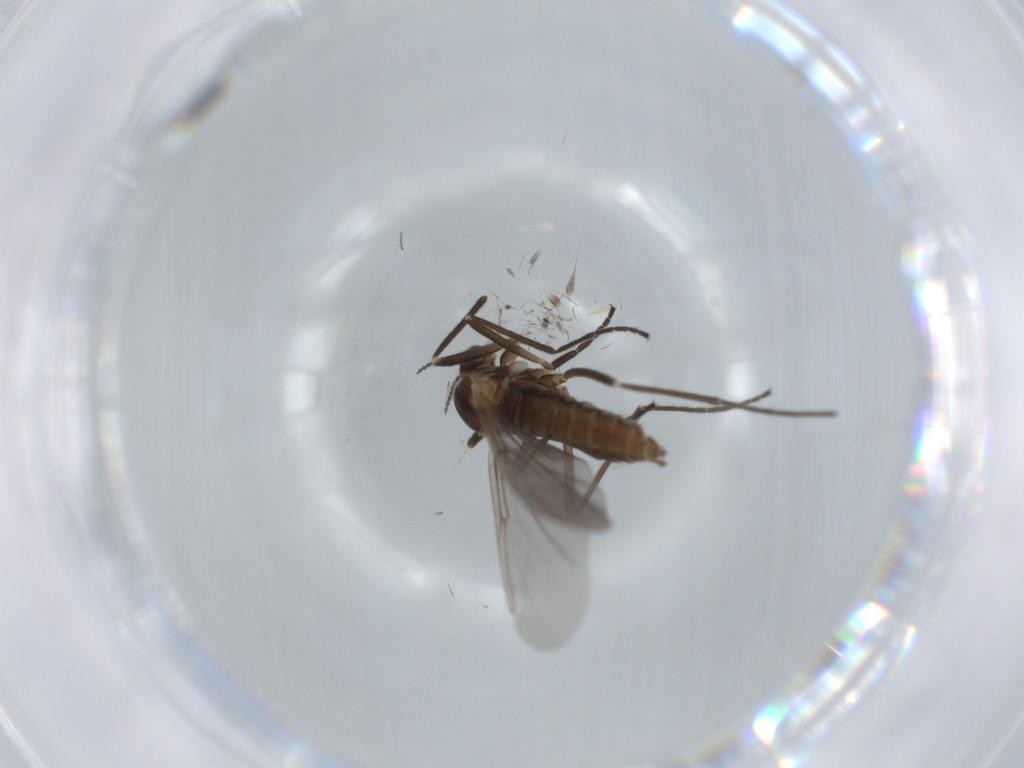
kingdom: Animalia
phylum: Arthropoda
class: Insecta
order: Diptera
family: Cecidomyiidae
